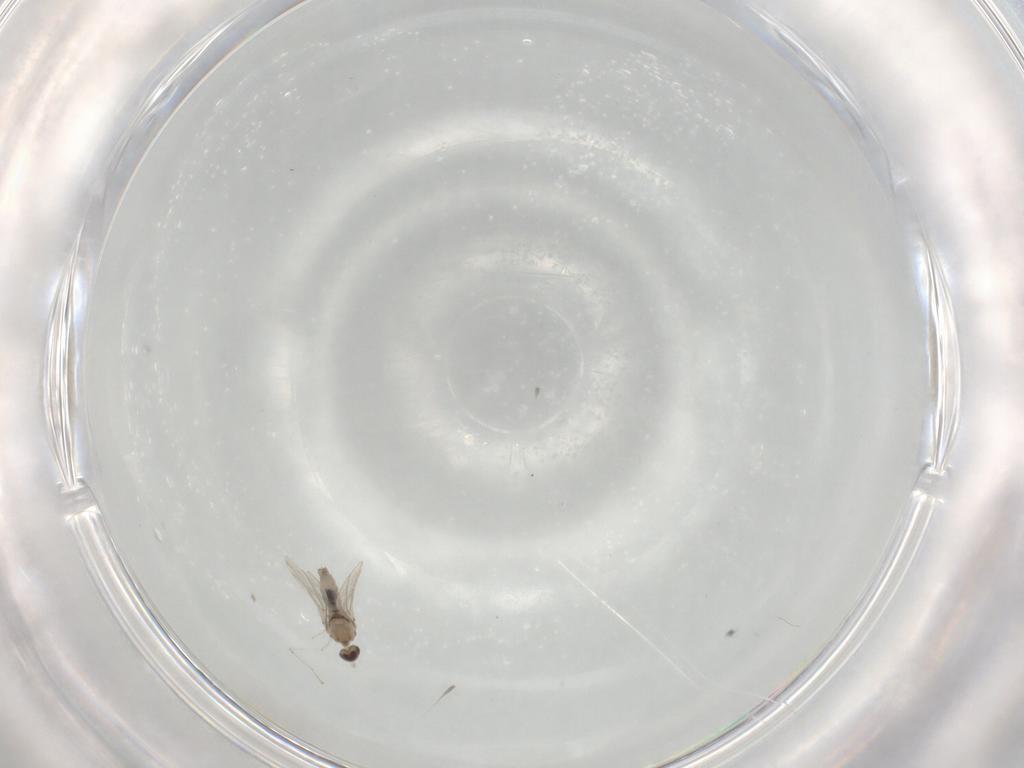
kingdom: Animalia
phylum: Arthropoda
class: Insecta
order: Diptera
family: Cecidomyiidae
